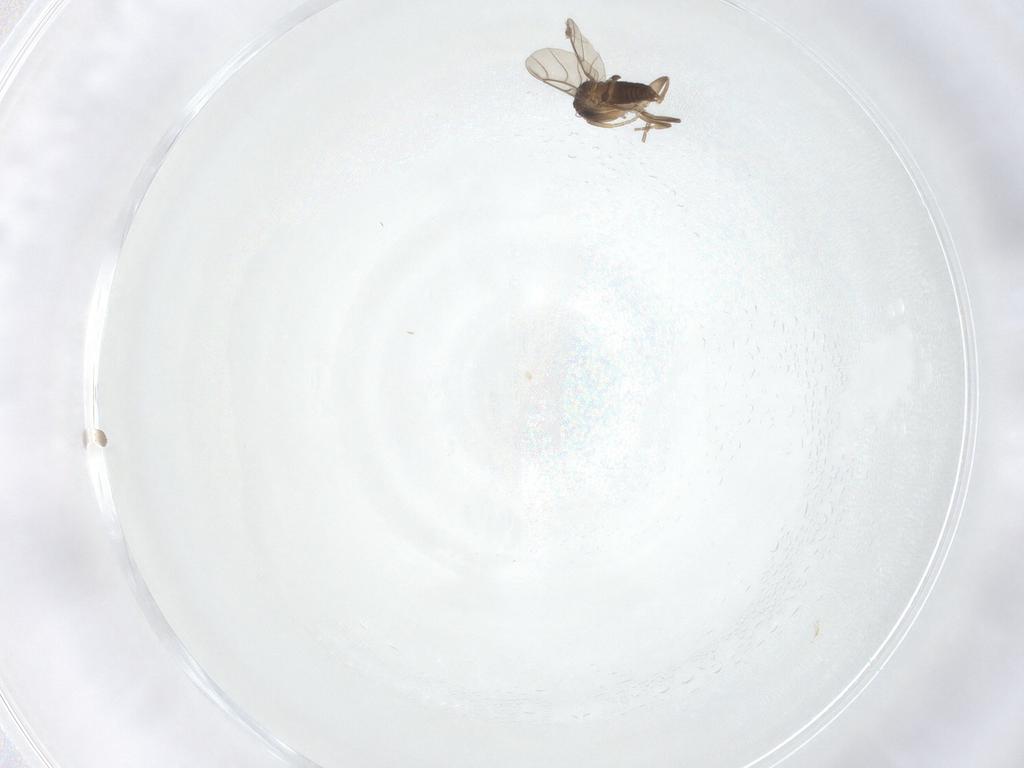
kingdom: Animalia
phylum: Arthropoda
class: Insecta
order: Diptera
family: Phoridae
